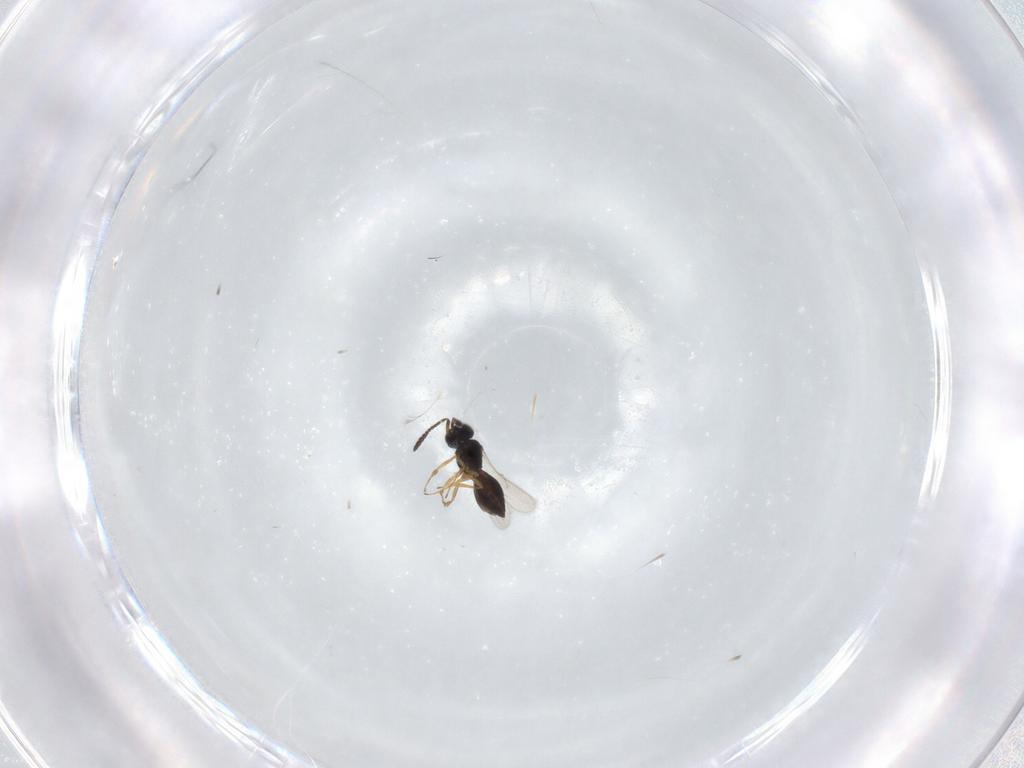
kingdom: Animalia
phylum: Arthropoda
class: Insecta
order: Hymenoptera
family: Scelionidae
